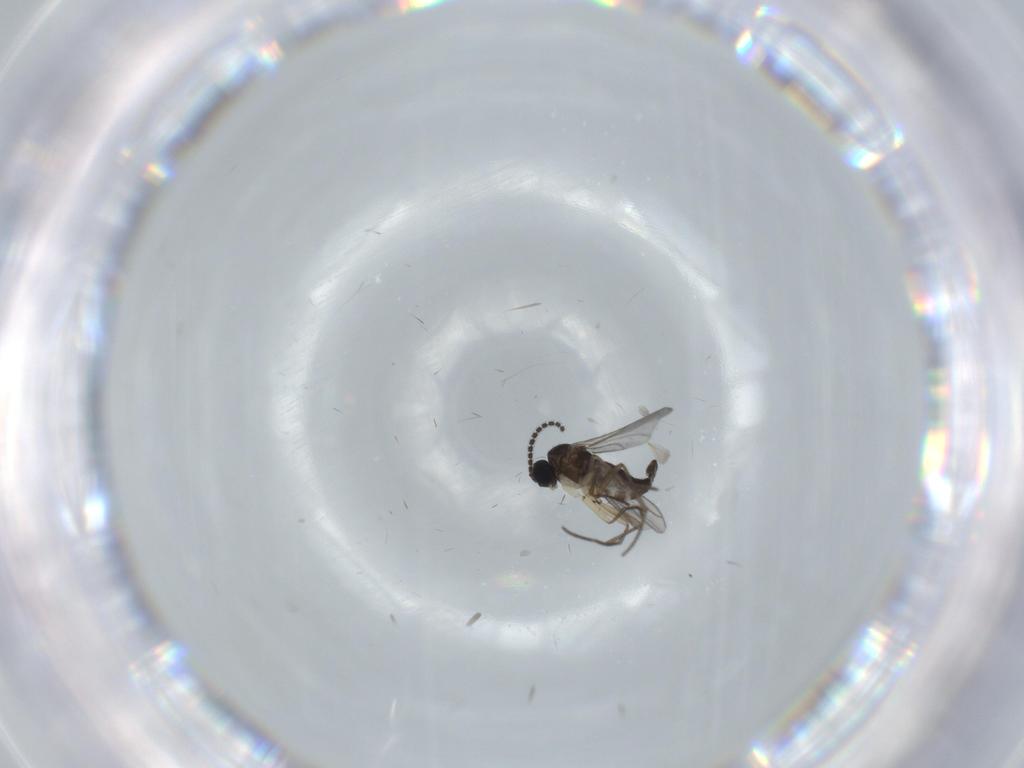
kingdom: Animalia
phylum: Arthropoda
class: Insecta
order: Diptera
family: Sciaridae
